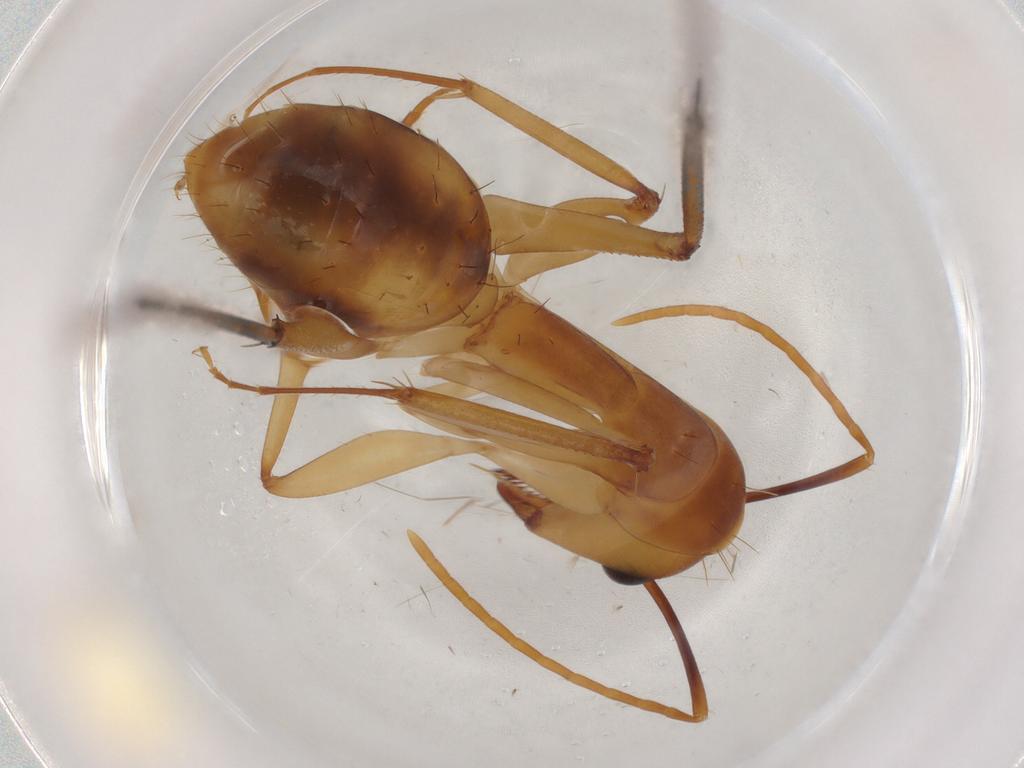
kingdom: Animalia
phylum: Arthropoda
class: Insecta
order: Hymenoptera
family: Formicidae
